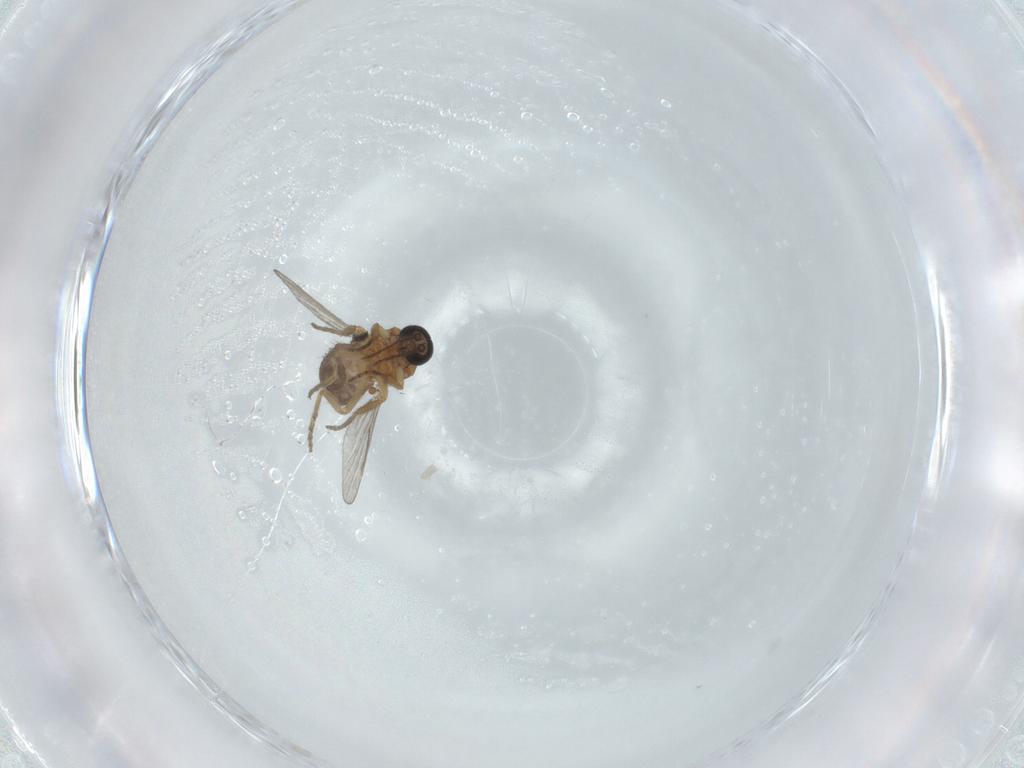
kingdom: Animalia
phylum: Arthropoda
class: Insecta
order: Diptera
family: Ceratopogonidae
